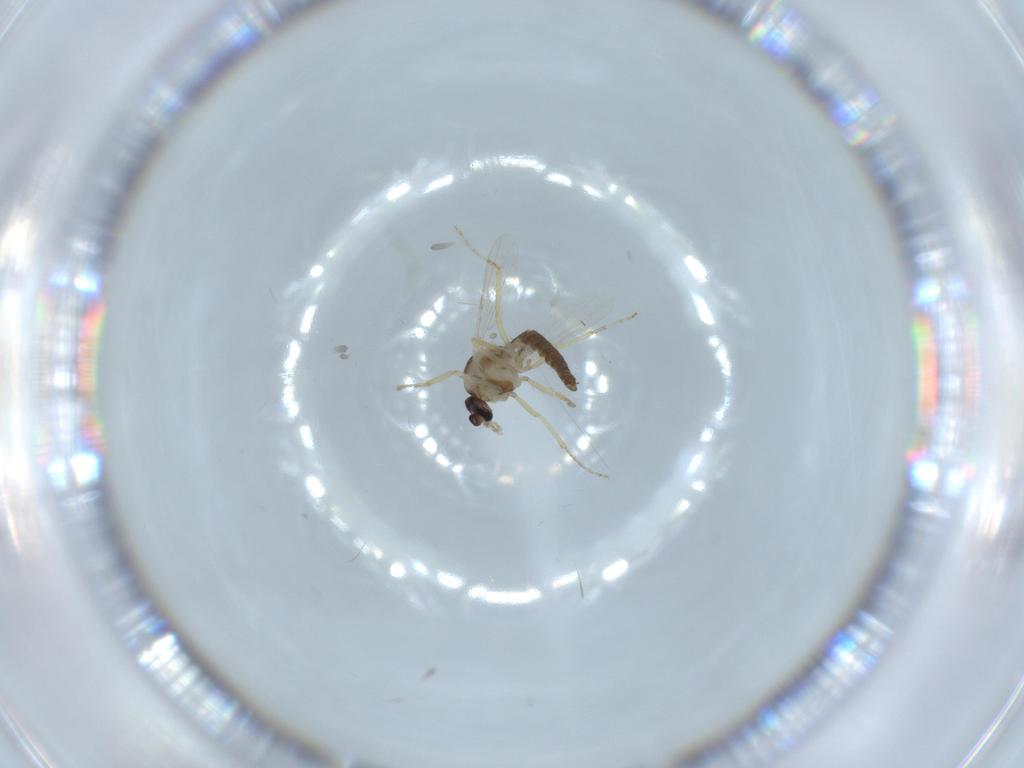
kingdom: Animalia
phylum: Arthropoda
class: Insecta
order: Diptera
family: Ceratopogonidae
